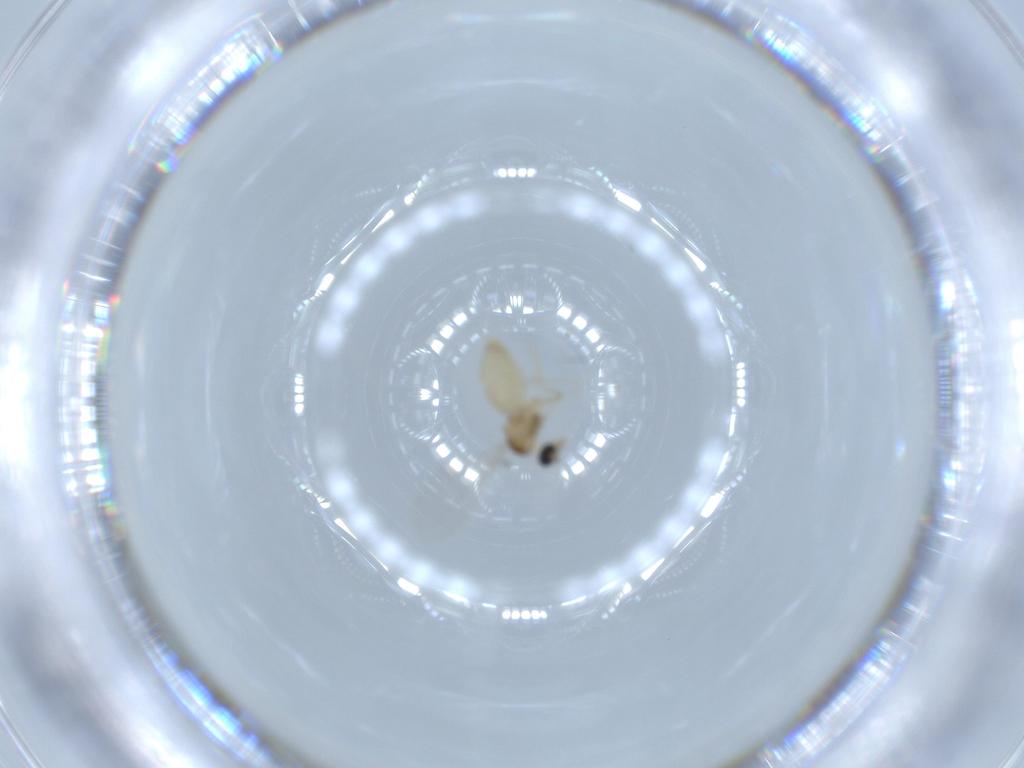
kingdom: Animalia
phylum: Arthropoda
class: Insecta
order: Diptera
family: Cecidomyiidae
